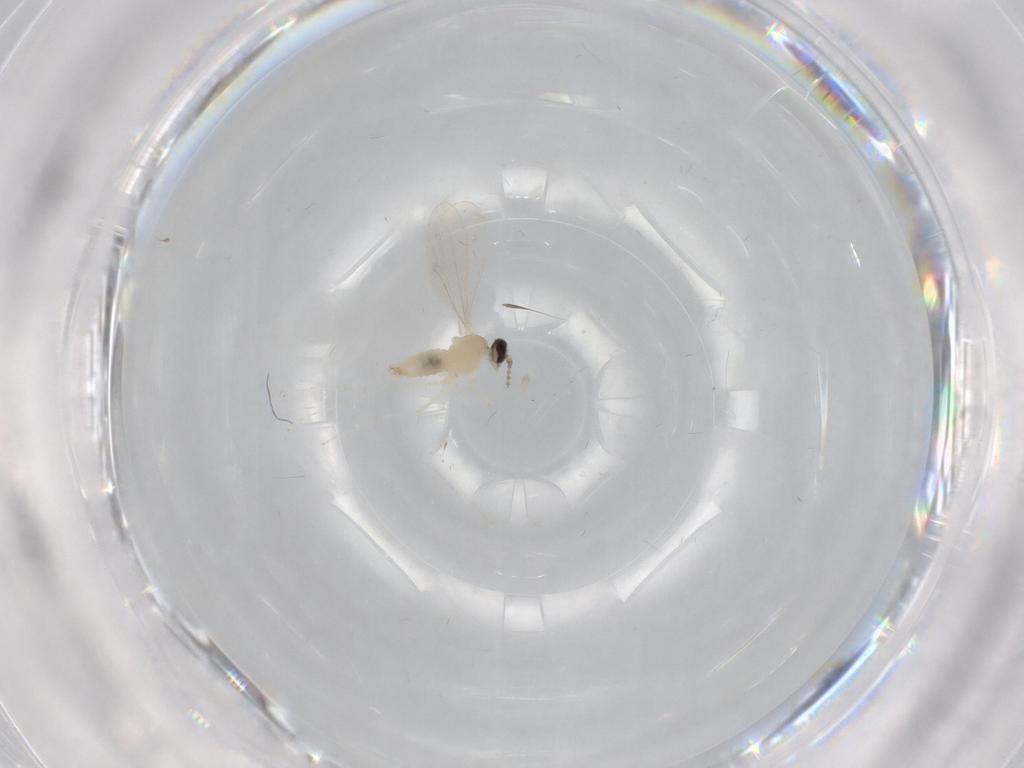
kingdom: Animalia
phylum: Arthropoda
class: Insecta
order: Diptera
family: Cecidomyiidae
